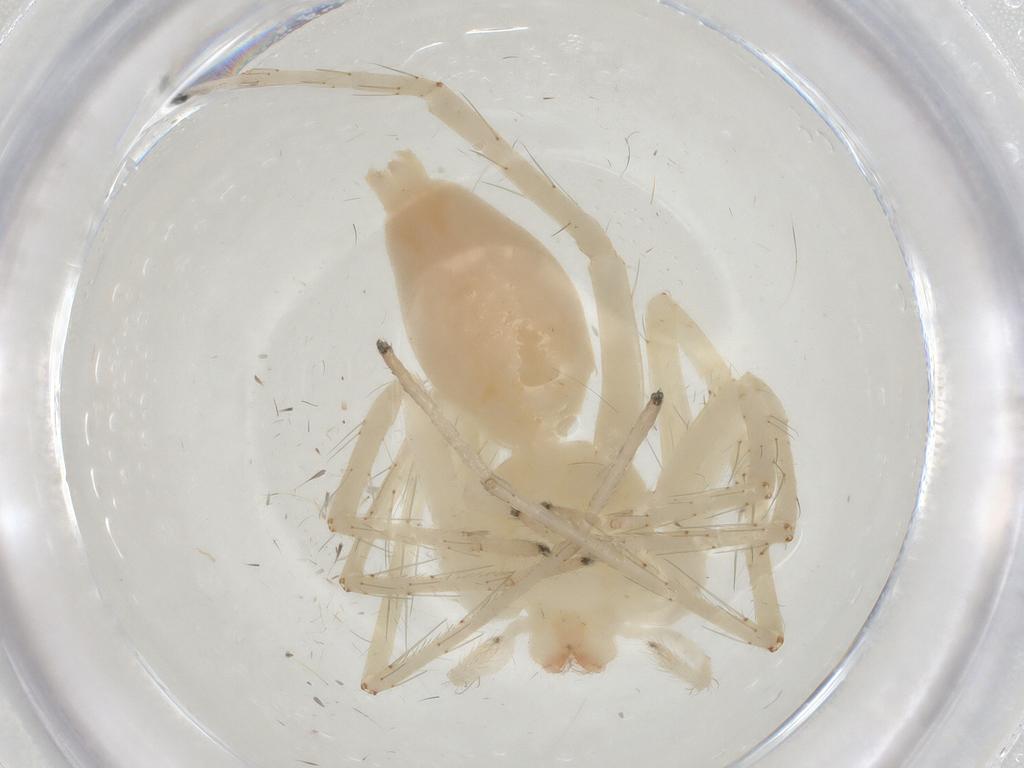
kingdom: Animalia
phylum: Arthropoda
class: Arachnida
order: Araneae
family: Anyphaenidae
